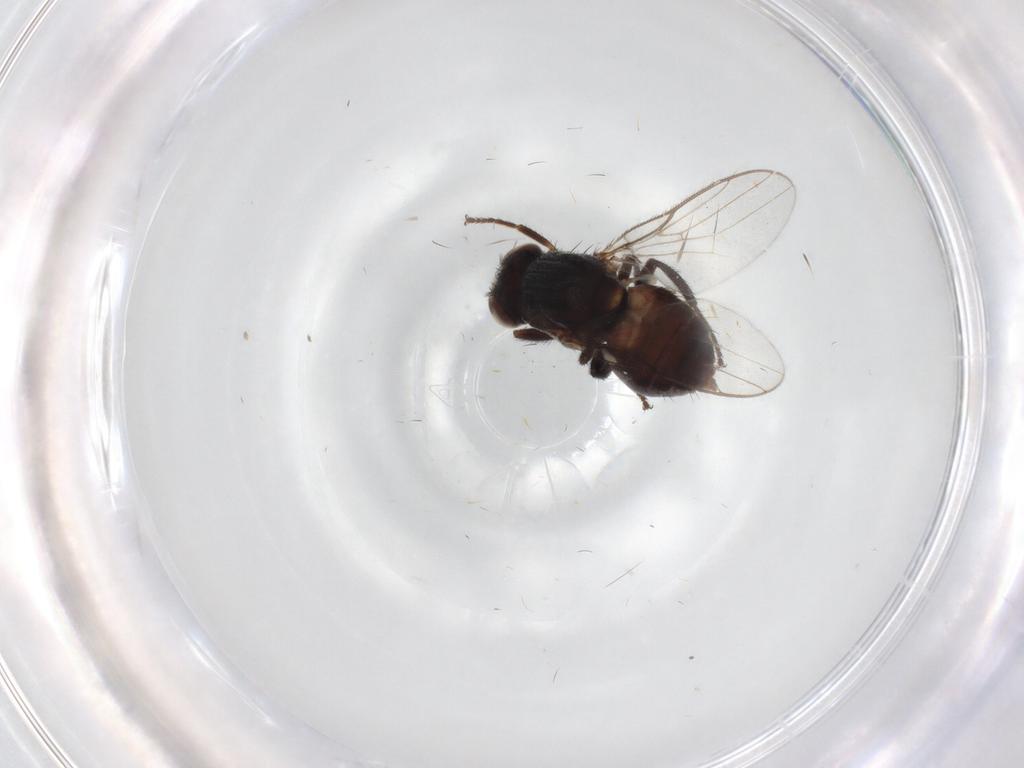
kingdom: Animalia
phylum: Arthropoda
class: Insecta
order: Diptera
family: Chloropidae
